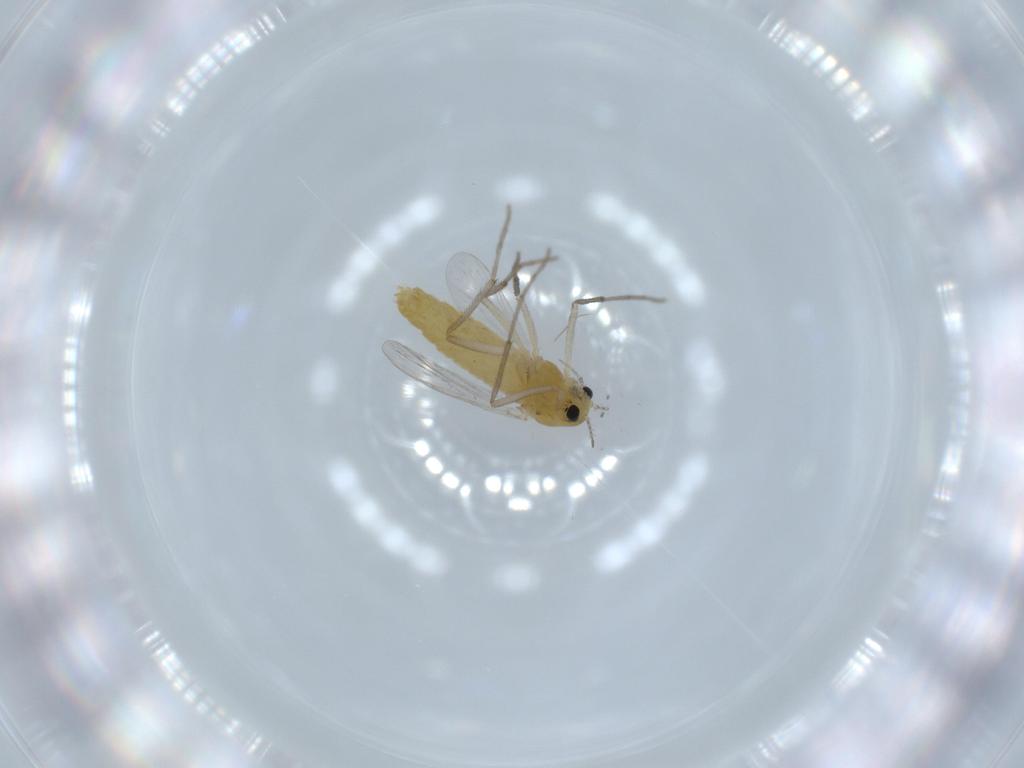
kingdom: Animalia
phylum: Arthropoda
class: Insecta
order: Diptera
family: Chironomidae
